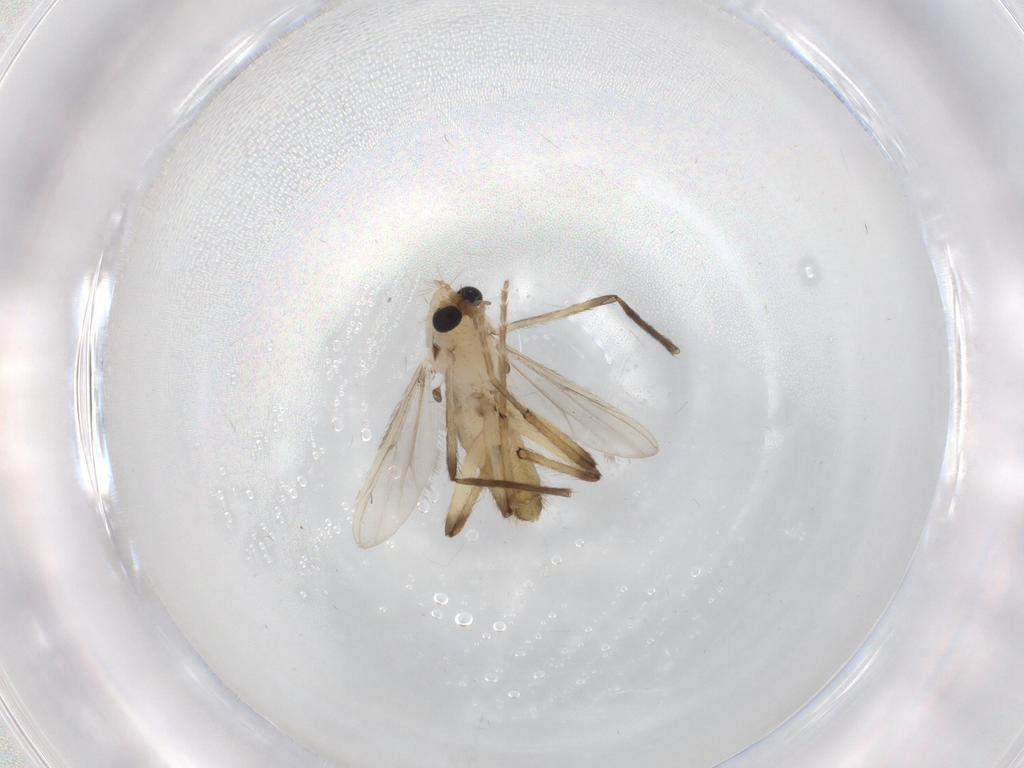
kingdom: Animalia
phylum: Arthropoda
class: Insecta
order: Diptera
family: Chironomidae
